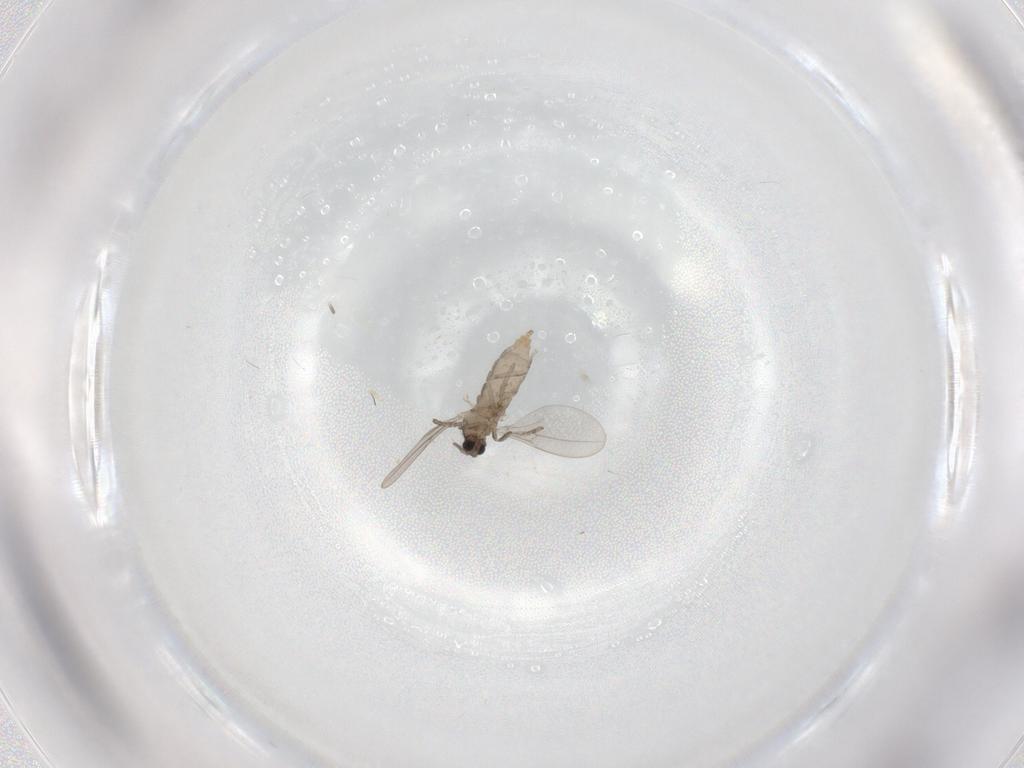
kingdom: Animalia
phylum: Arthropoda
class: Insecta
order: Diptera
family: Cecidomyiidae
